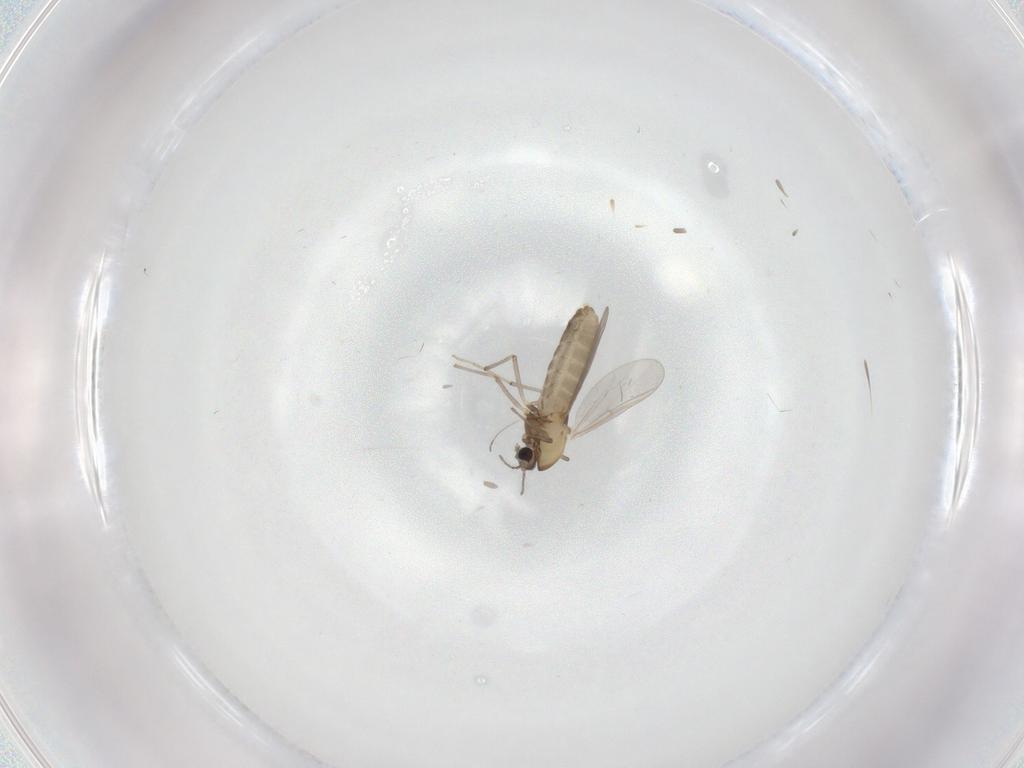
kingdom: Animalia
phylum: Arthropoda
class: Insecta
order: Diptera
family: Chironomidae
